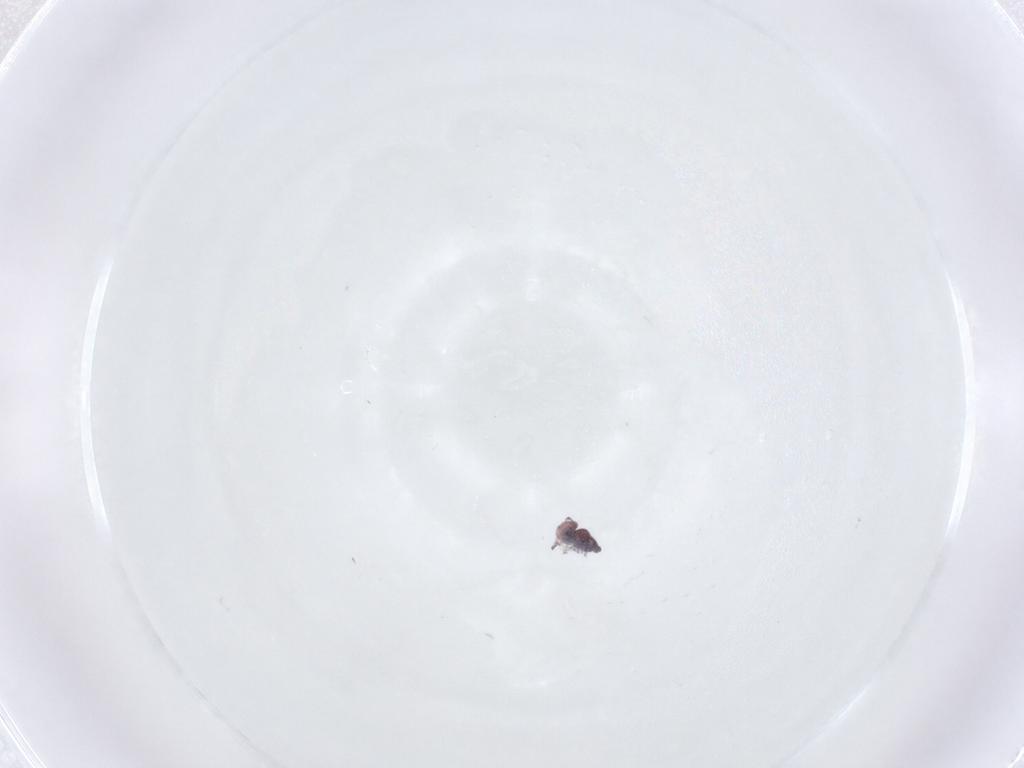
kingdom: Animalia
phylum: Arthropoda
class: Collembola
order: Symphypleona
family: Bourletiellidae
